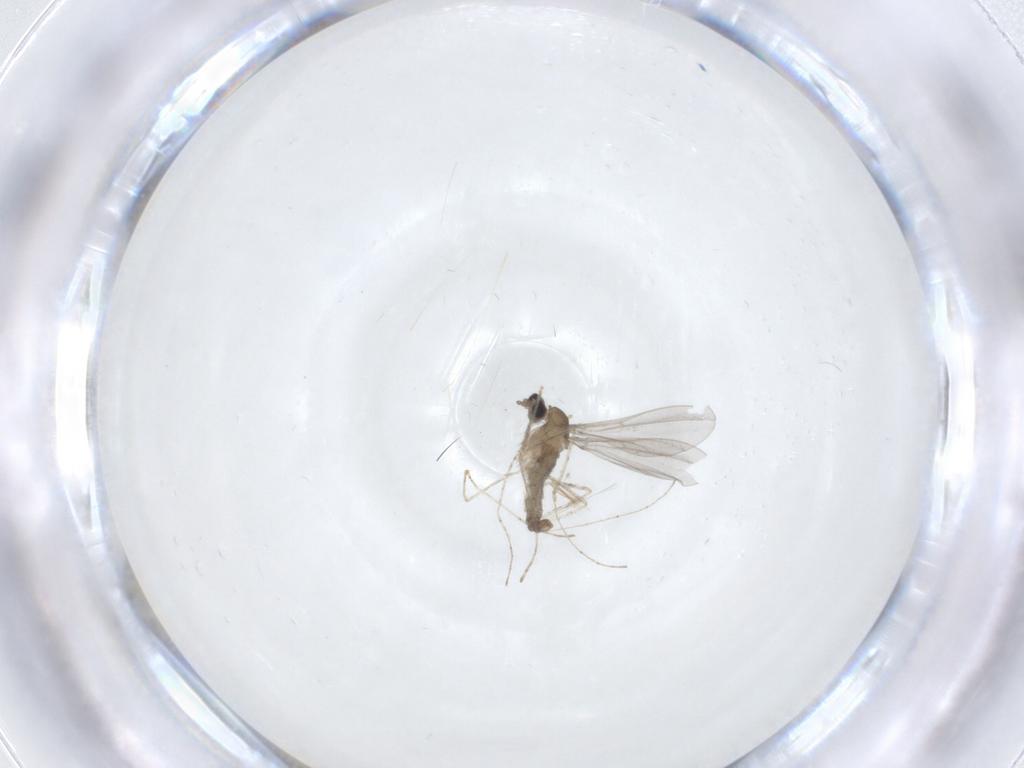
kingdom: Animalia
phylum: Arthropoda
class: Insecta
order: Diptera
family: Cecidomyiidae
